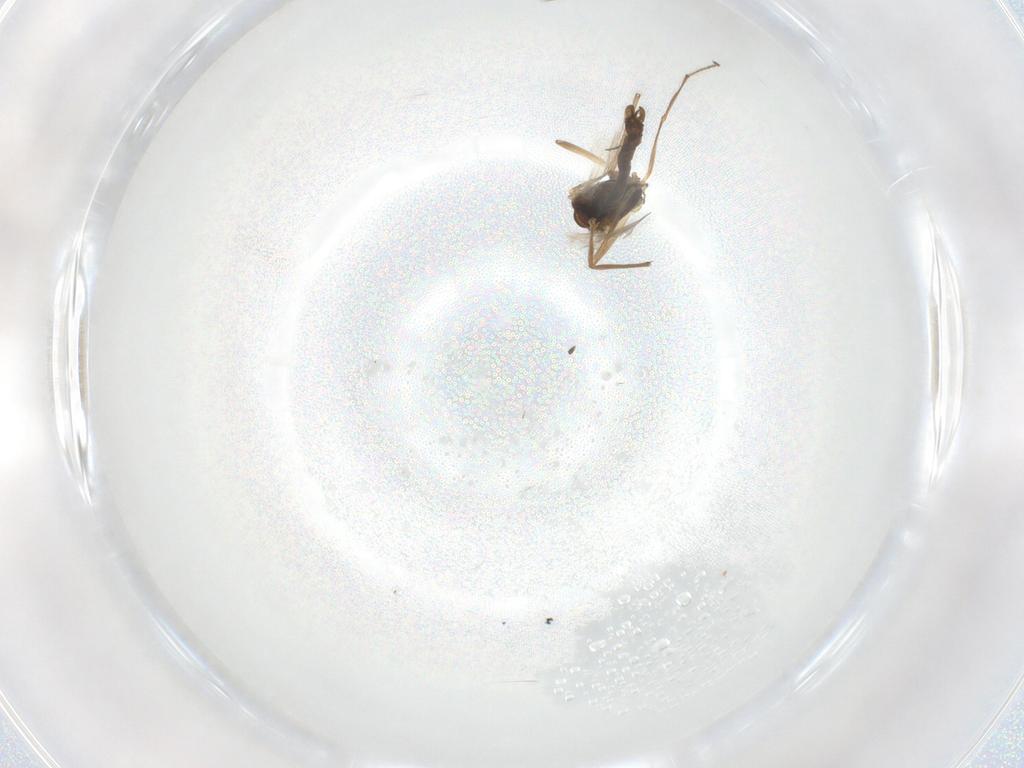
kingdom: Animalia
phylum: Arthropoda
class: Insecta
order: Diptera
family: Chironomidae
